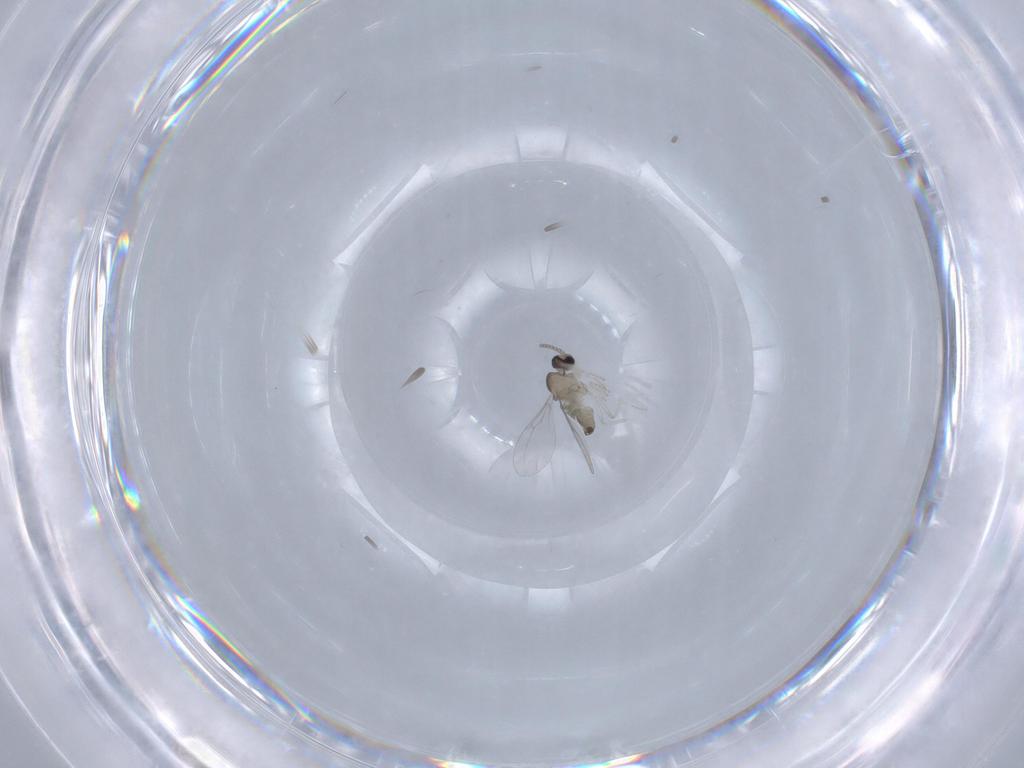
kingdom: Animalia
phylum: Arthropoda
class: Insecta
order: Diptera
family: Cecidomyiidae
